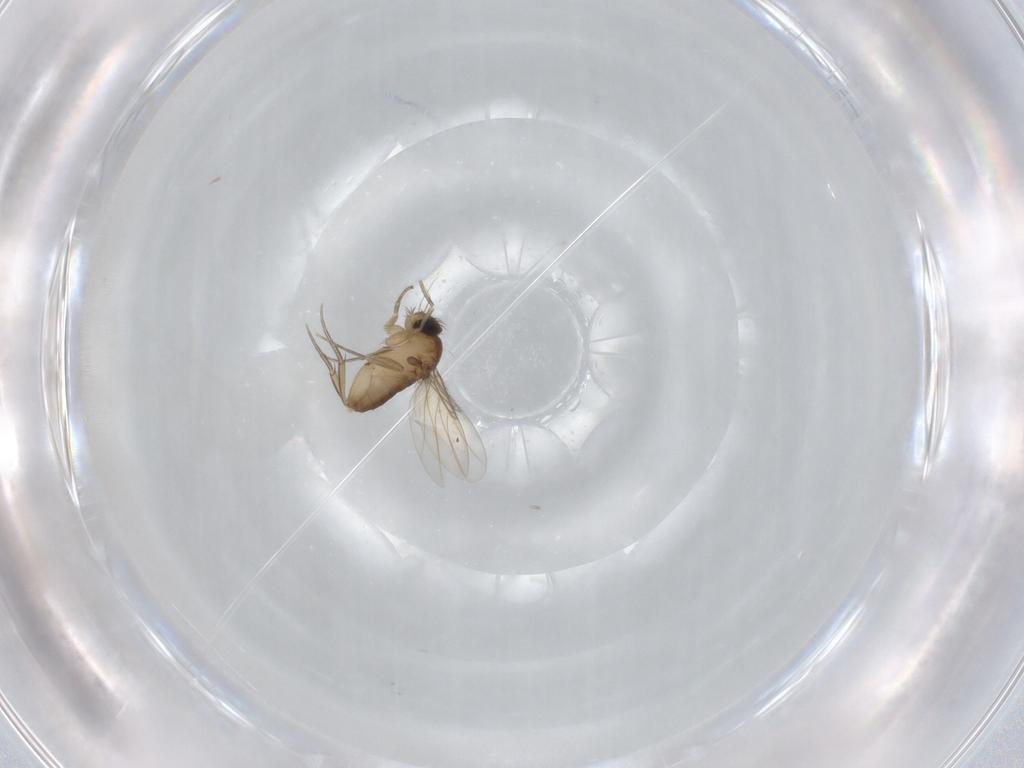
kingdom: Animalia
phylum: Arthropoda
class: Insecta
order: Diptera
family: Phoridae
